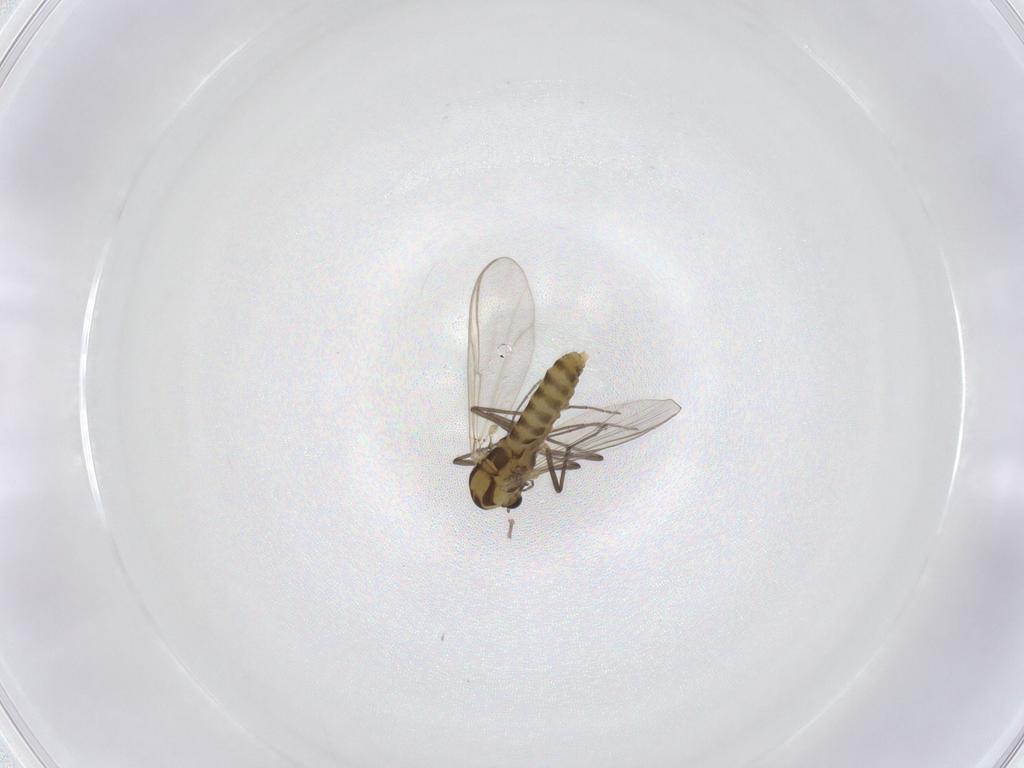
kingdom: Animalia
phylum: Arthropoda
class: Insecta
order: Diptera
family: Chironomidae
